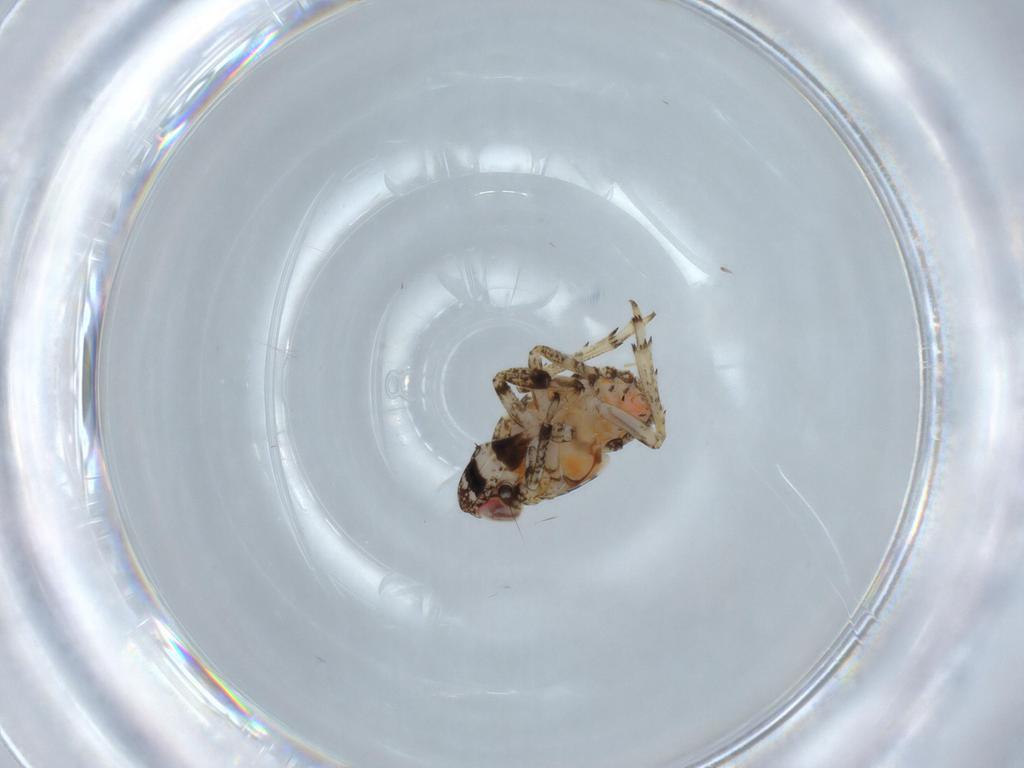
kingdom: Animalia
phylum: Arthropoda
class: Insecta
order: Hemiptera
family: Issidae
